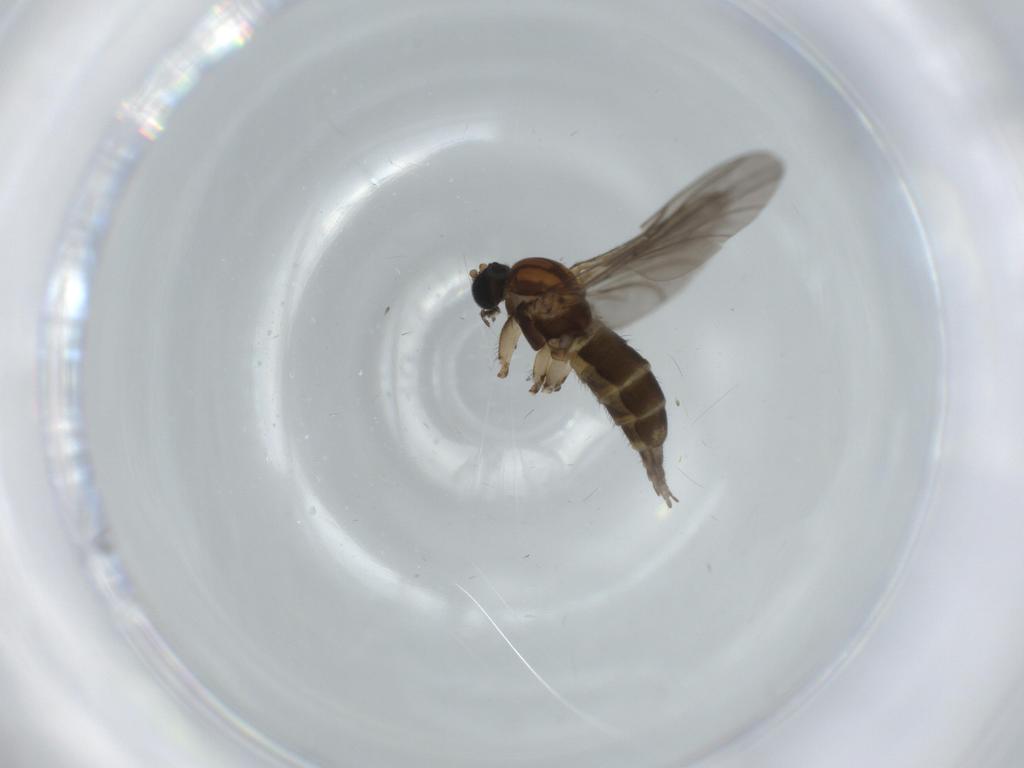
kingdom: Animalia
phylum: Arthropoda
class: Insecta
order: Diptera
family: Sciaridae
